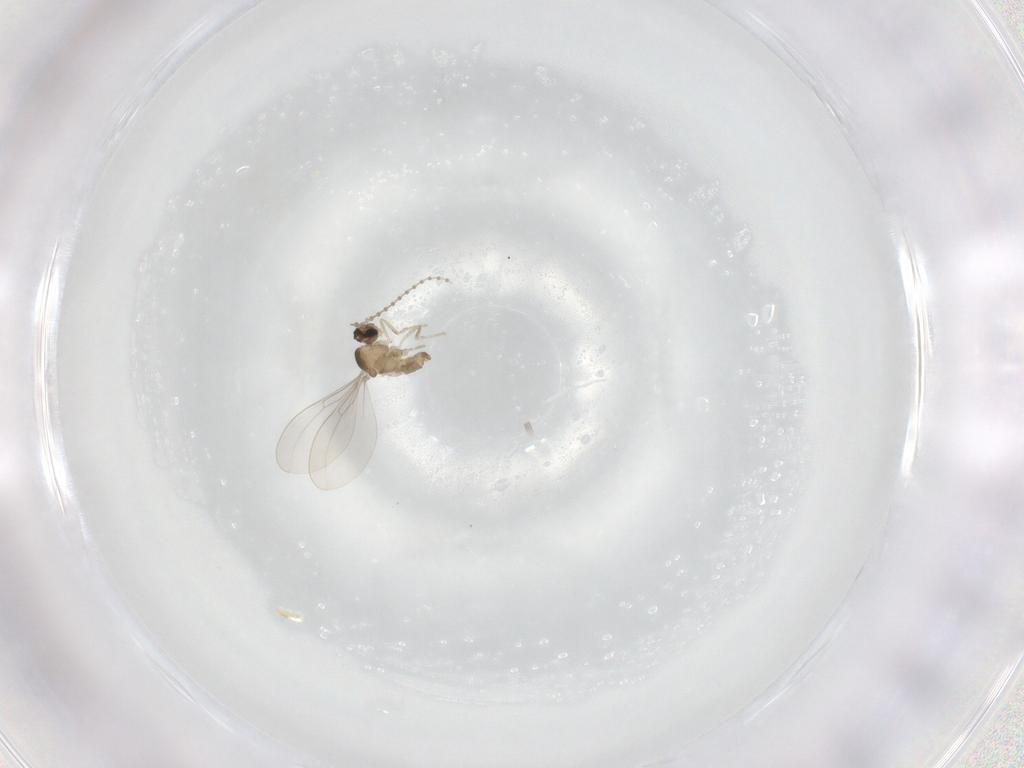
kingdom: Animalia
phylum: Arthropoda
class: Insecta
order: Diptera
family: Cecidomyiidae
